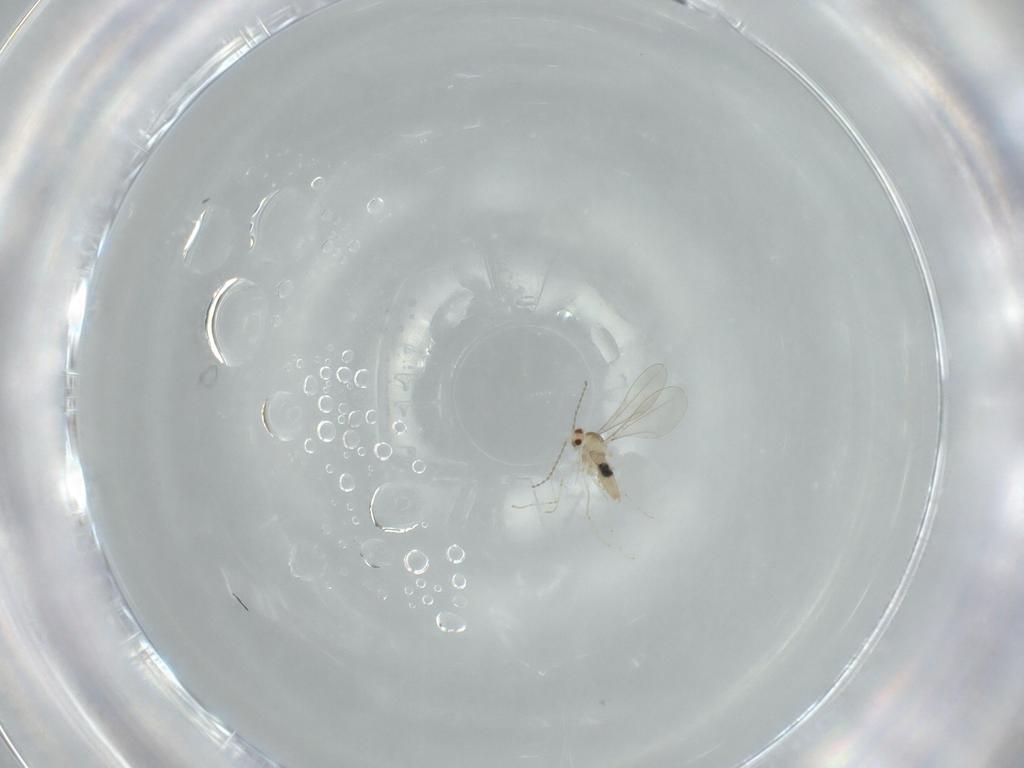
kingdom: Animalia
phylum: Arthropoda
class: Insecta
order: Diptera
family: Cecidomyiidae
